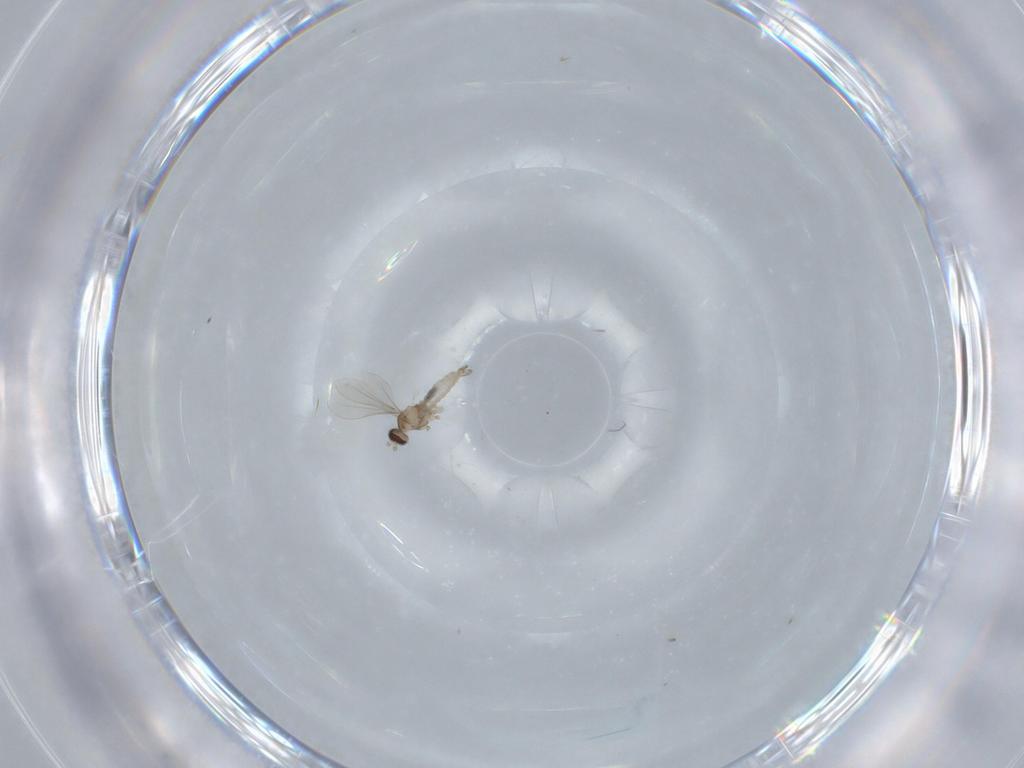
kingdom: Animalia
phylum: Arthropoda
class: Insecta
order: Diptera
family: Cecidomyiidae
